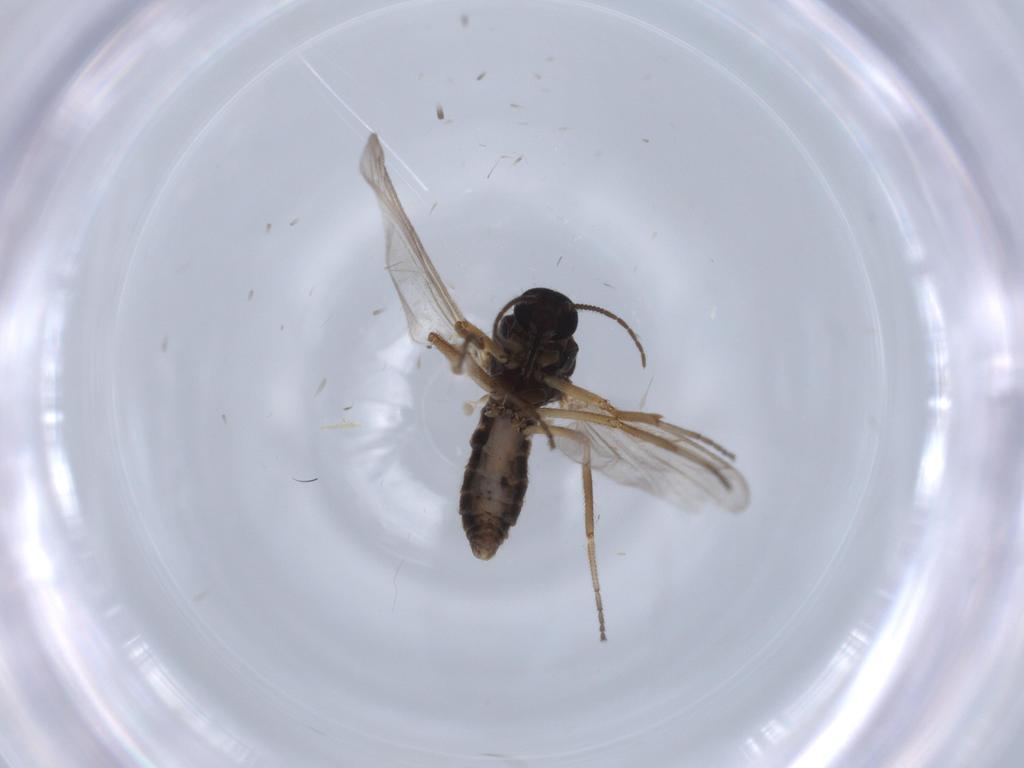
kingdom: Animalia
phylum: Arthropoda
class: Insecta
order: Diptera
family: Ceratopogonidae
